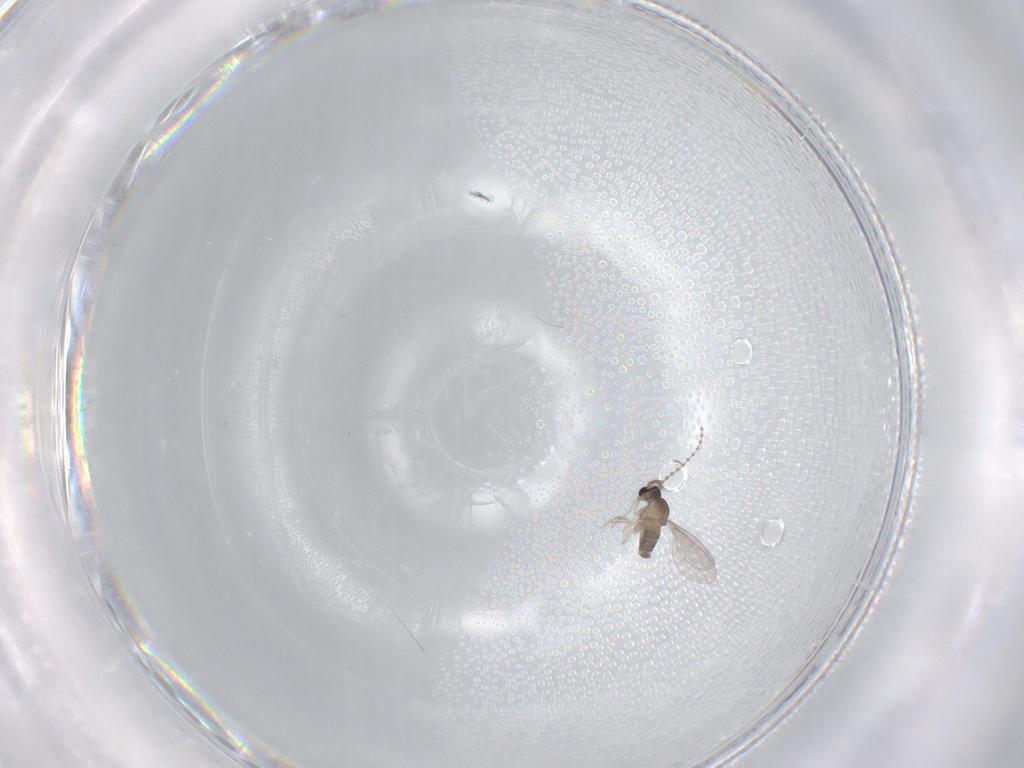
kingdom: Animalia
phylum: Arthropoda
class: Insecta
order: Diptera
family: Cecidomyiidae
